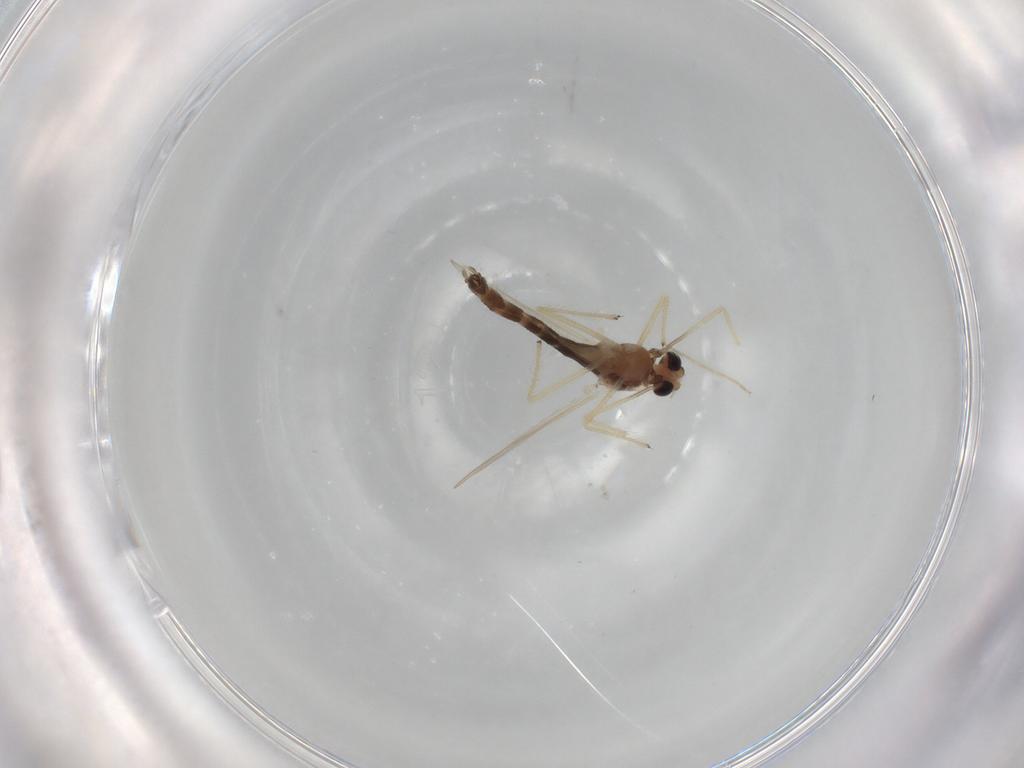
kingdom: Animalia
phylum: Arthropoda
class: Insecta
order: Diptera
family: Chironomidae
